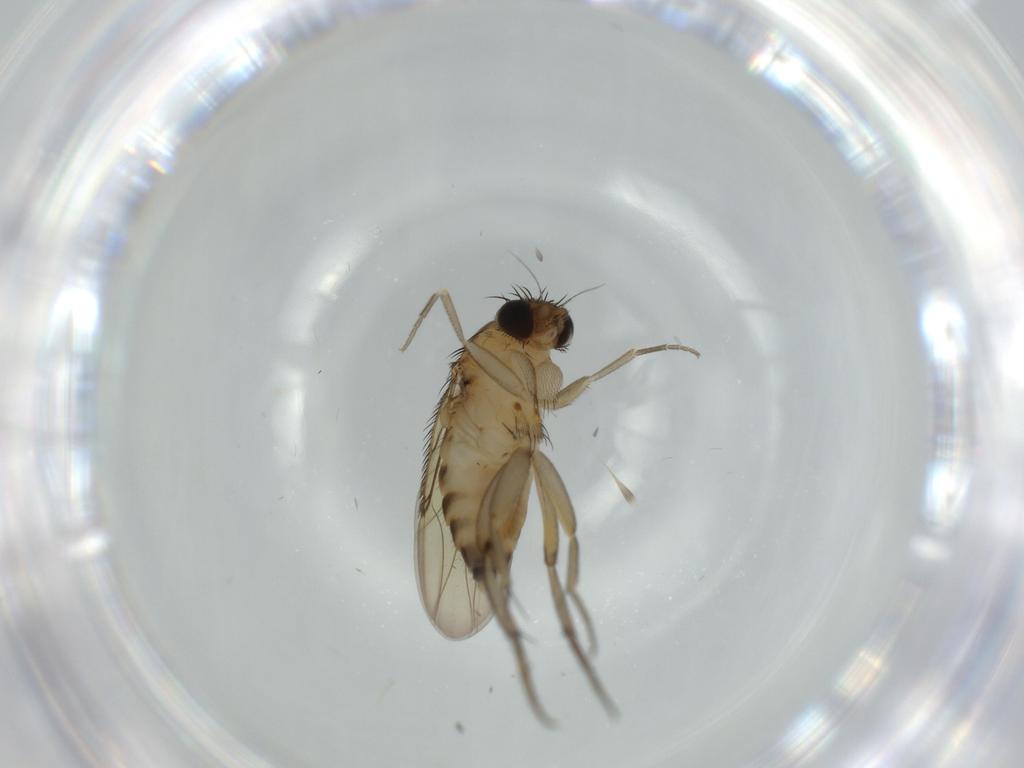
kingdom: Animalia
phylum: Arthropoda
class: Insecta
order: Diptera
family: Phoridae
